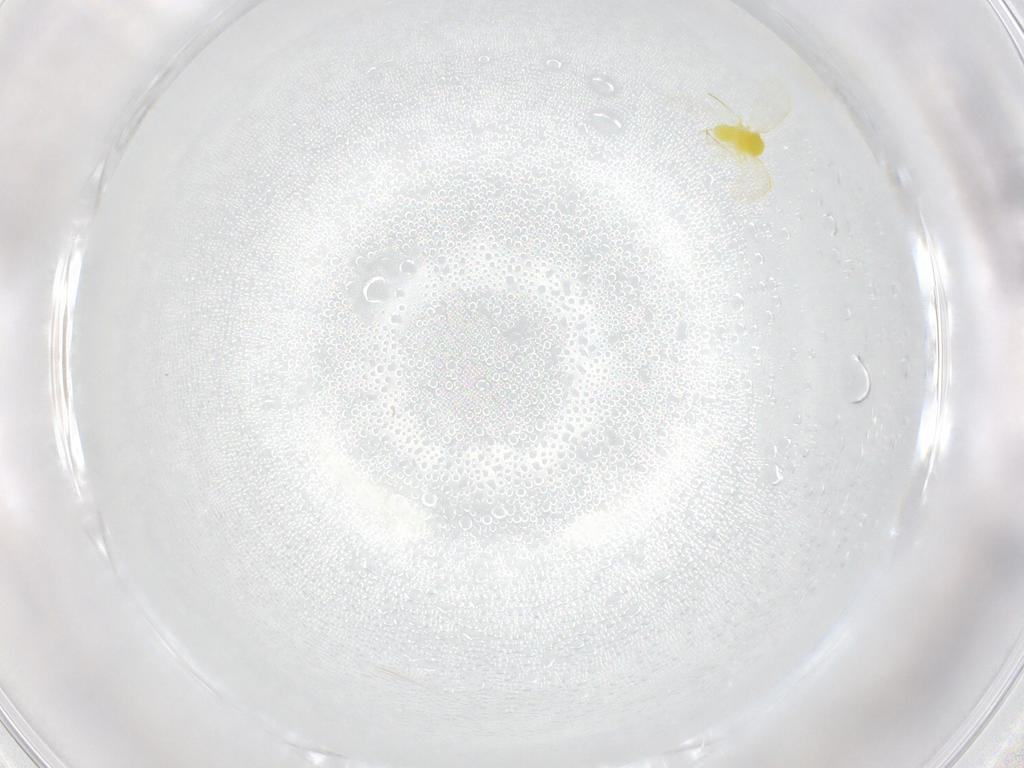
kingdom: Animalia
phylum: Arthropoda
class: Insecta
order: Hemiptera
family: Aleyrodidae
